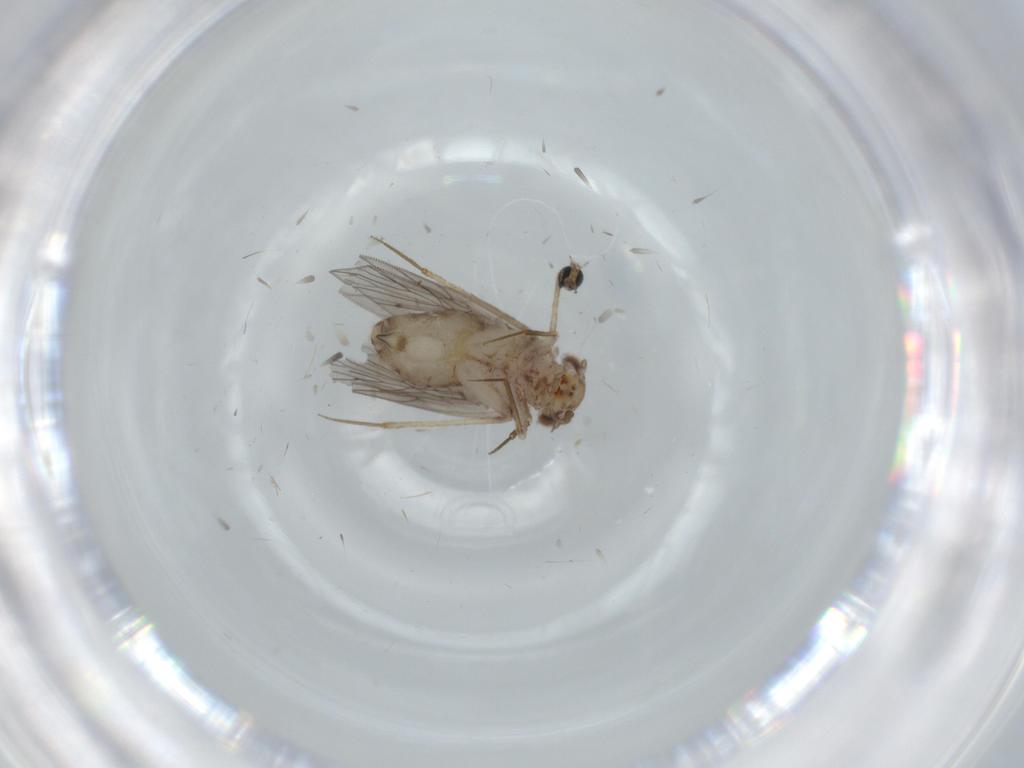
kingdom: Animalia
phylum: Arthropoda
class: Insecta
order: Psocodea
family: Lepidopsocidae
